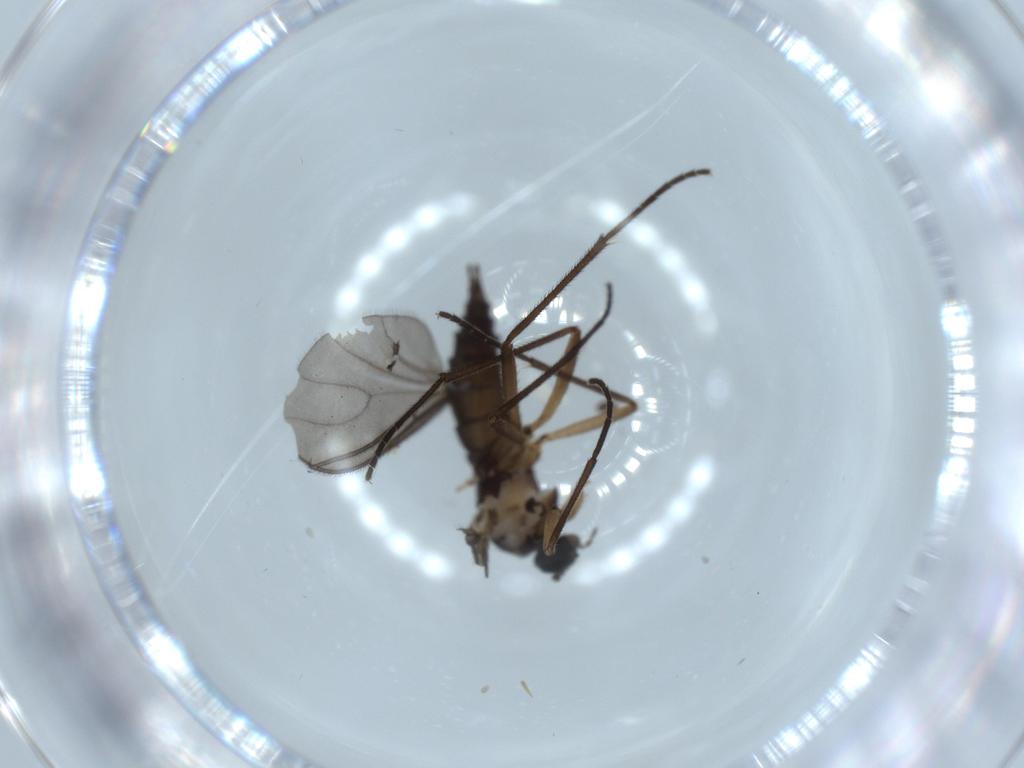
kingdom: Animalia
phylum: Arthropoda
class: Insecta
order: Diptera
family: Sciaridae
